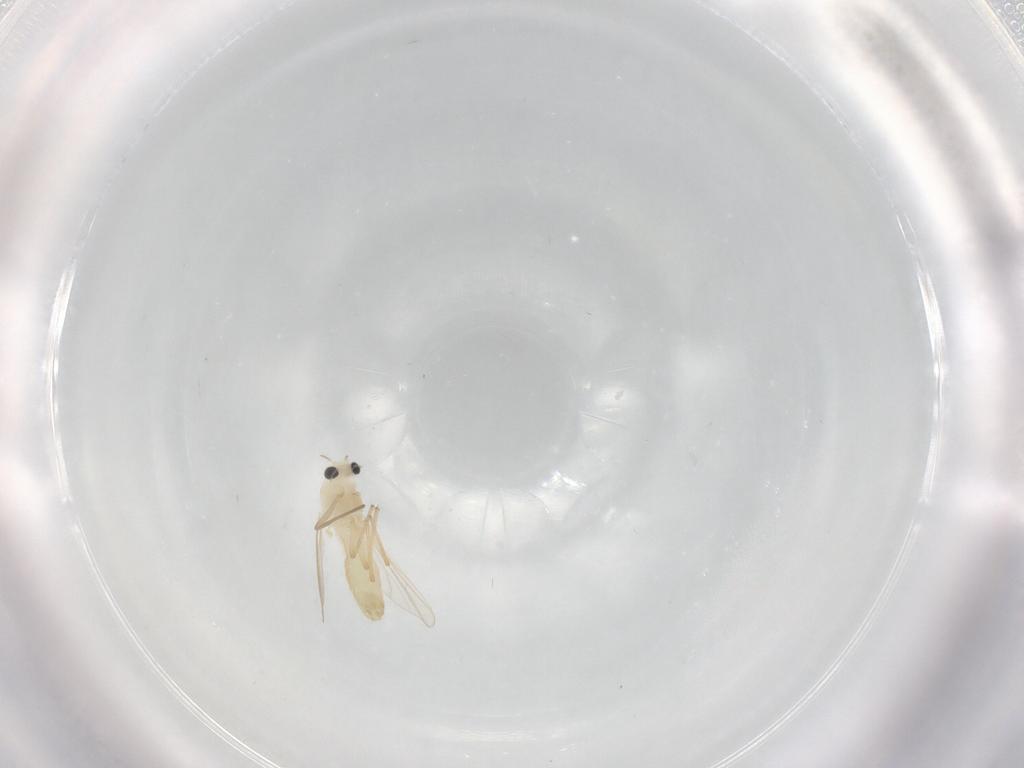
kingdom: Animalia
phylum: Arthropoda
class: Insecta
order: Diptera
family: Chironomidae
